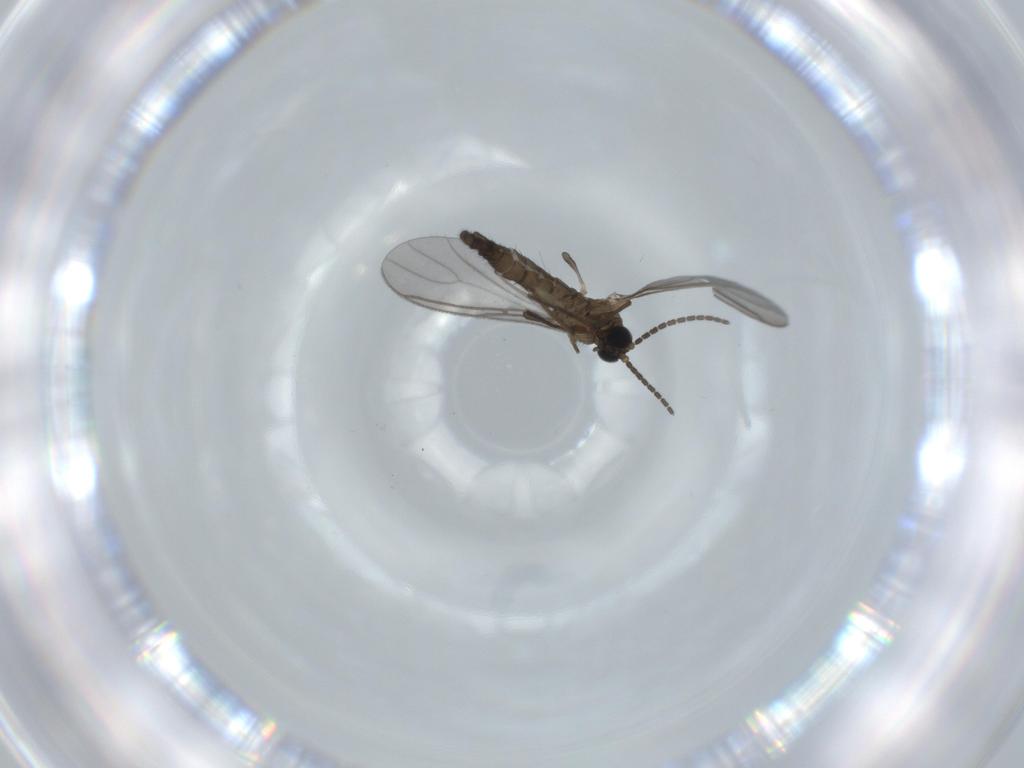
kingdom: Animalia
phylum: Arthropoda
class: Insecta
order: Diptera
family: Sciaridae
